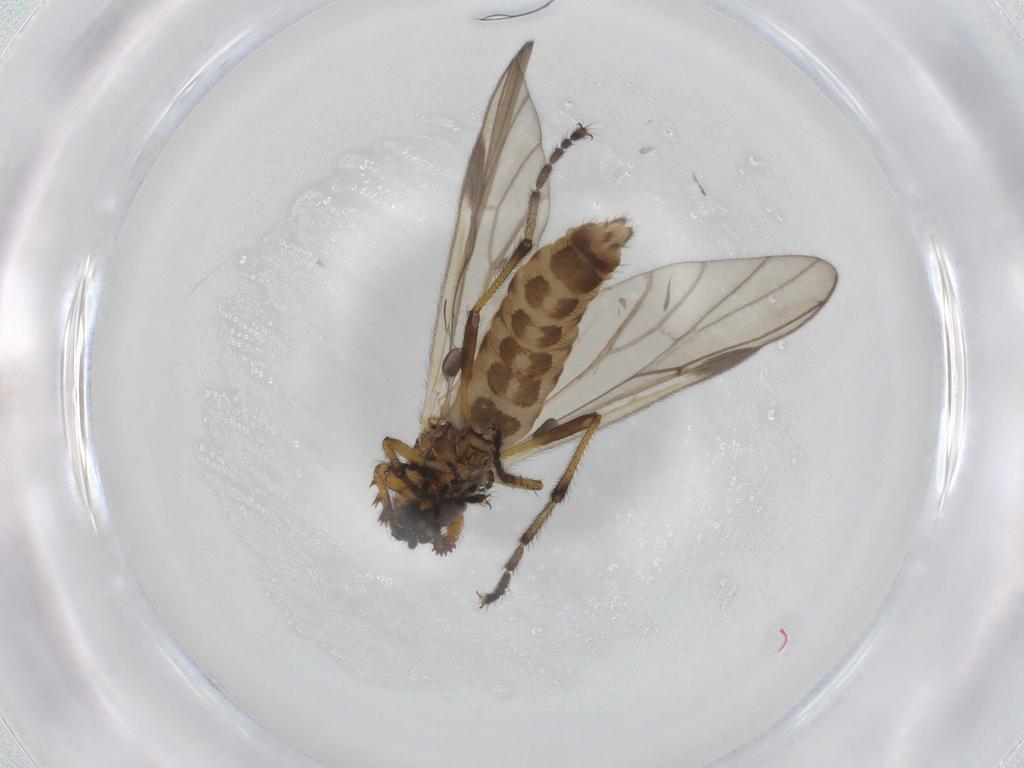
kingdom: Animalia
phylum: Arthropoda
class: Insecta
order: Diptera
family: Bibionidae
